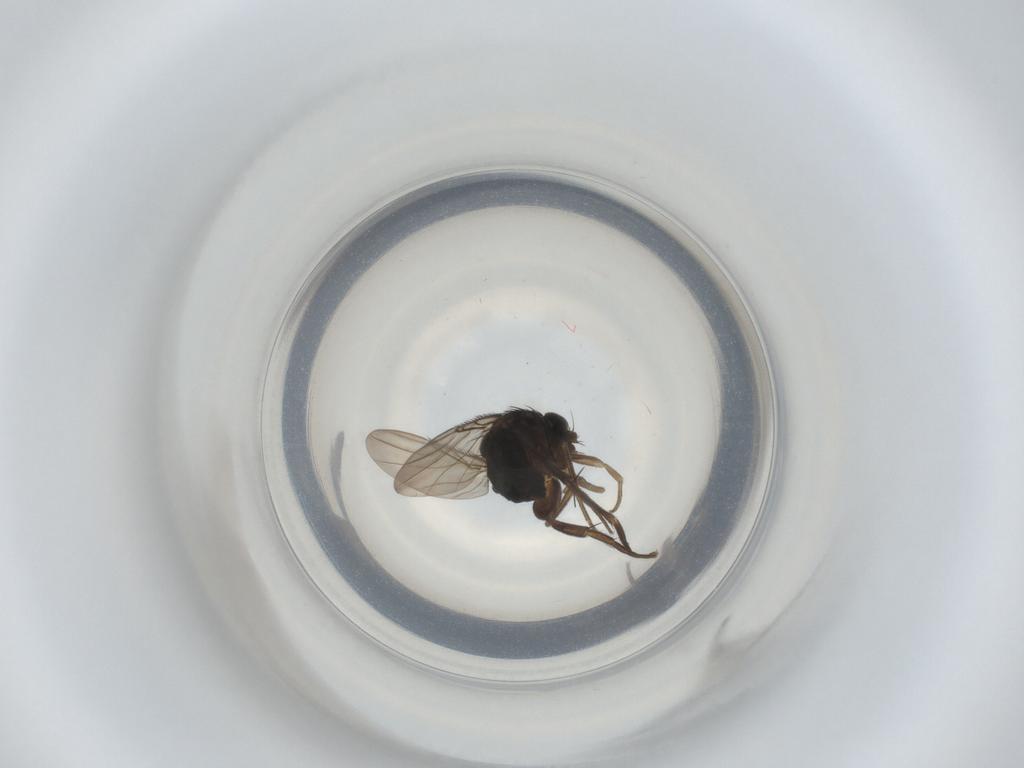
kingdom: Animalia
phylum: Arthropoda
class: Insecta
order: Diptera
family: Phoridae
